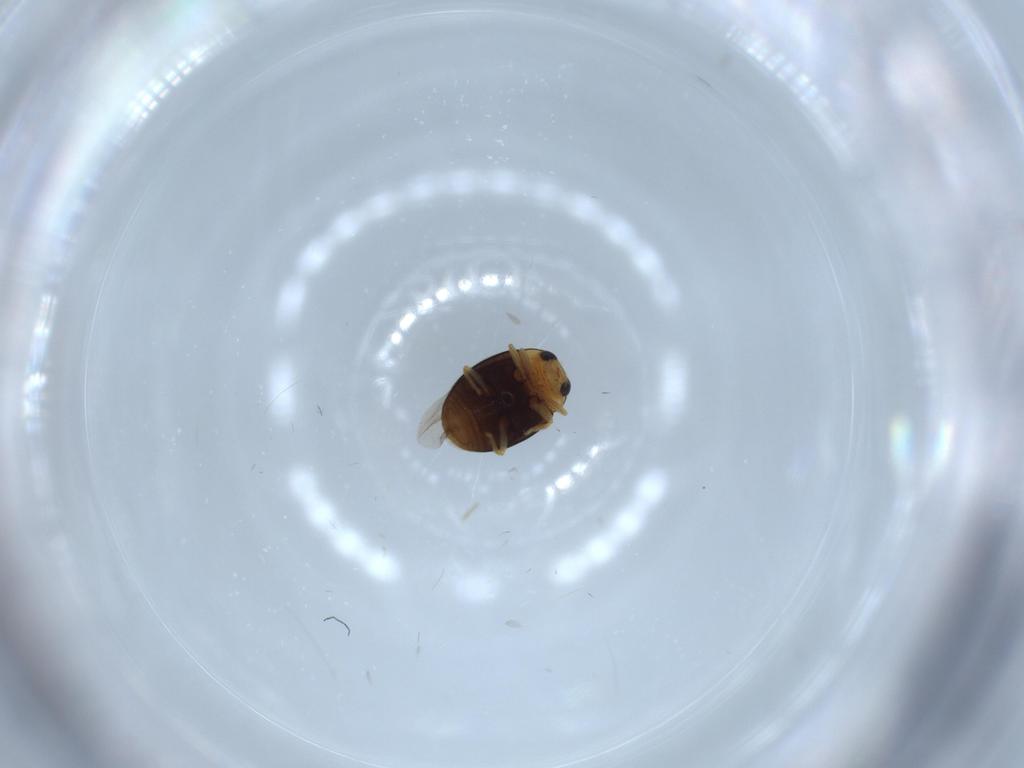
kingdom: Animalia
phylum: Arthropoda
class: Insecta
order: Coleoptera
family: Coccinellidae
